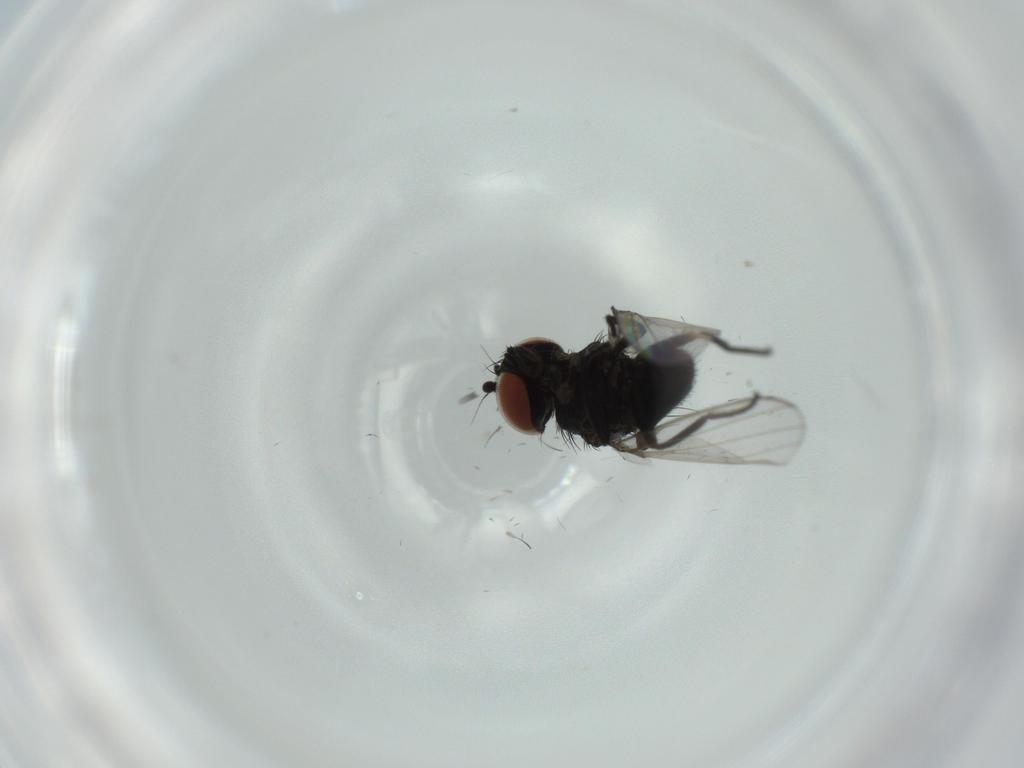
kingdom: Animalia
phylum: Arthropoda
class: Insecta
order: Diptera
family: Milichiidae
